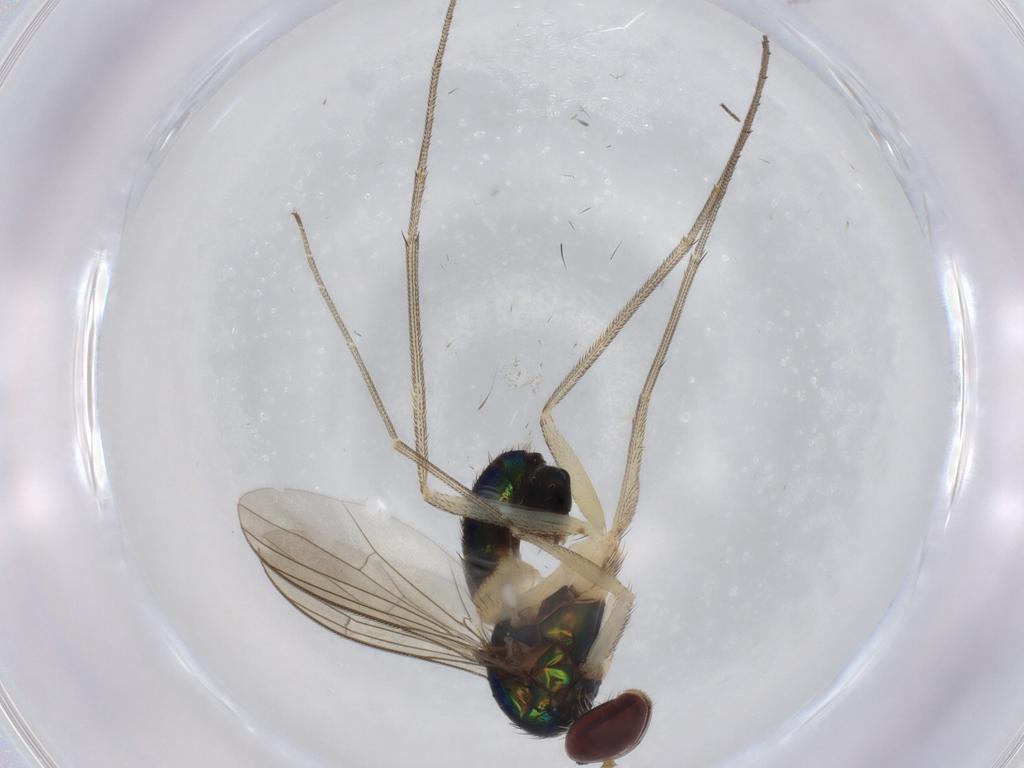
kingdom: Animalia
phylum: Arthropoda
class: Insecta
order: Diptera
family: Dolichopodidae
